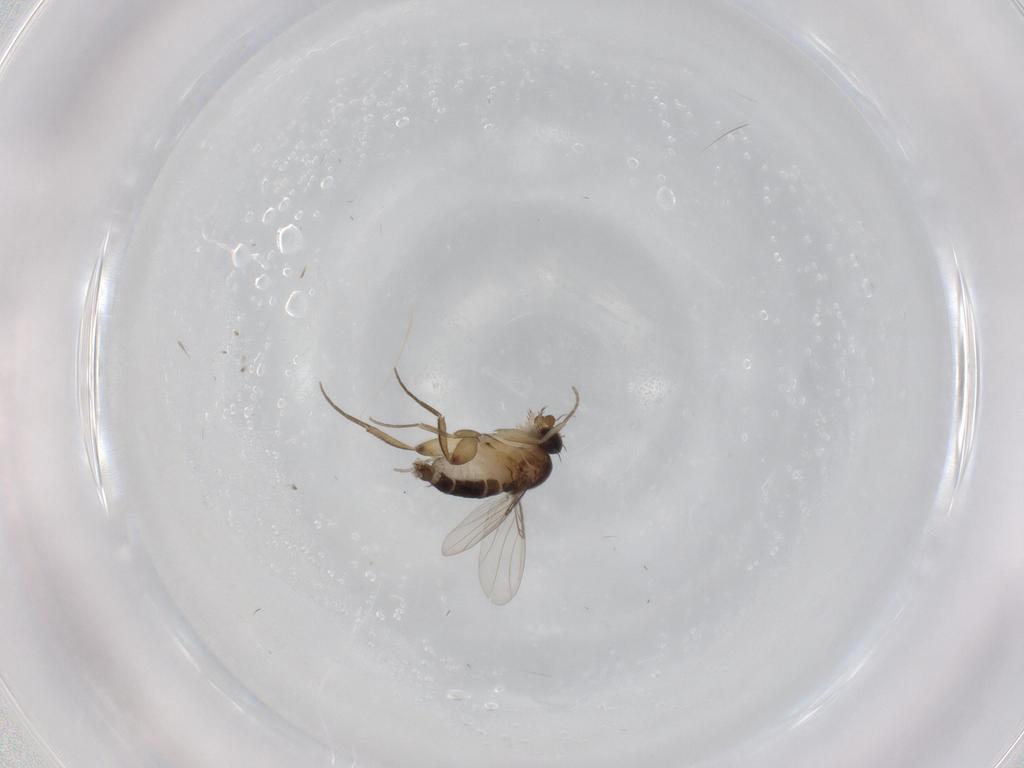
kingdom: Animalia
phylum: Arthropoda
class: Insecta
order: Diptera
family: Phoridae
